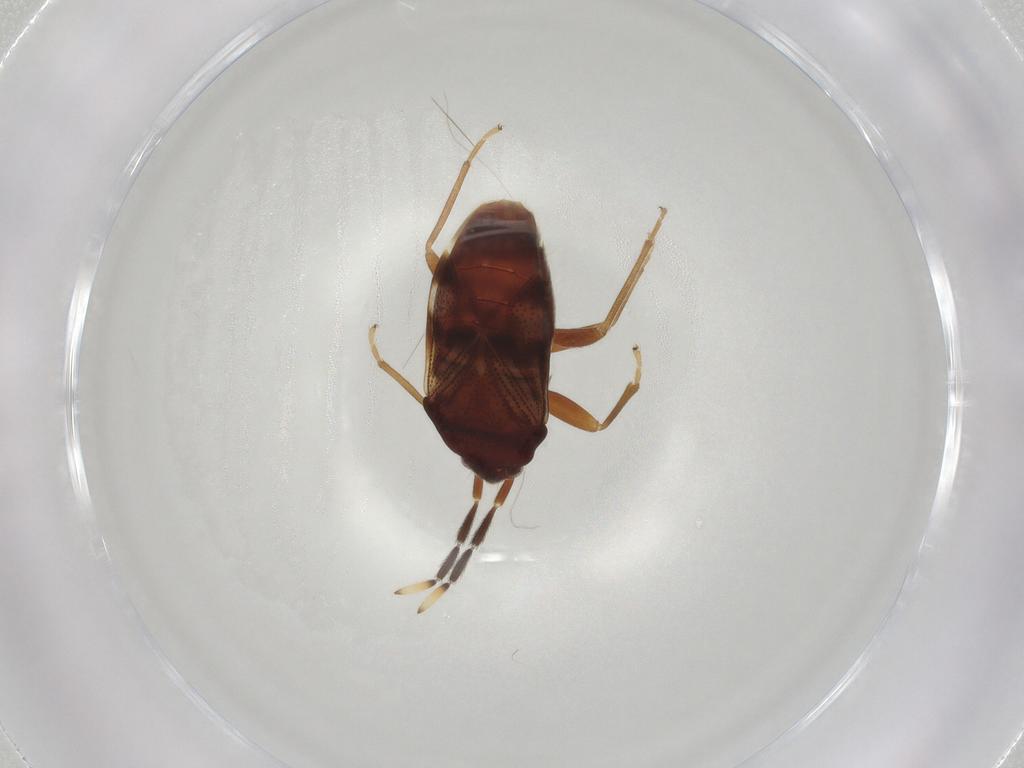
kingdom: Animalia
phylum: Arthropoda
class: Insecta
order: Hemiptera
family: Rhyparochromidae
